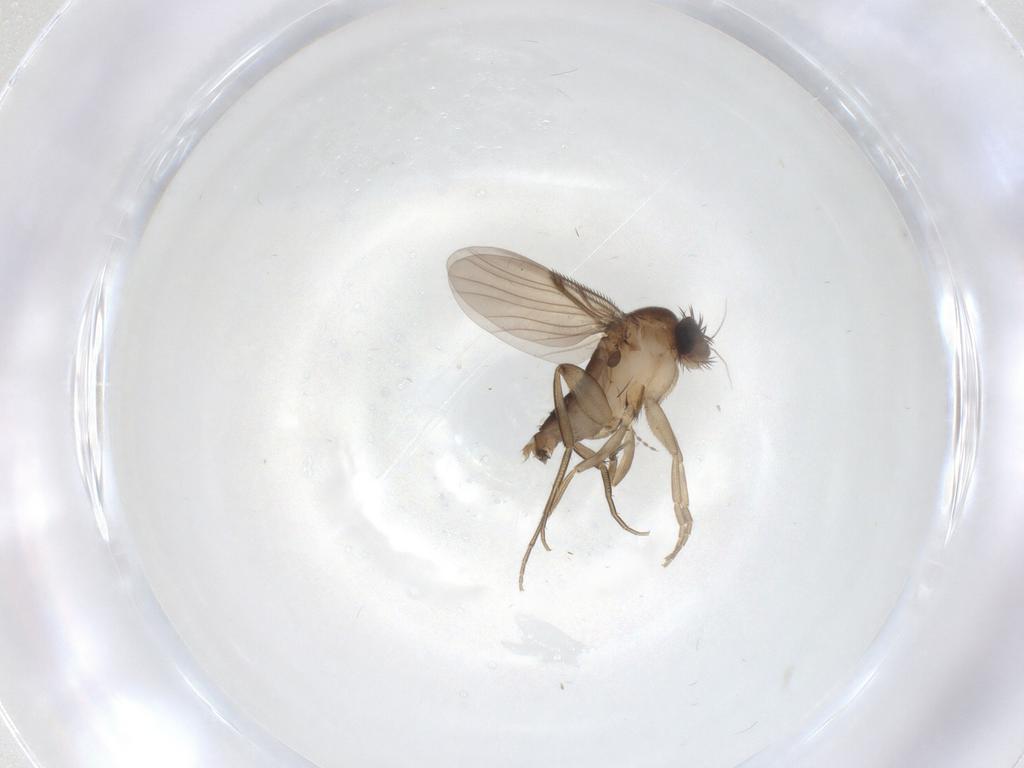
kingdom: Animalia
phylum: Arthropoda
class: Insecta
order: Diptera
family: Phoridae
